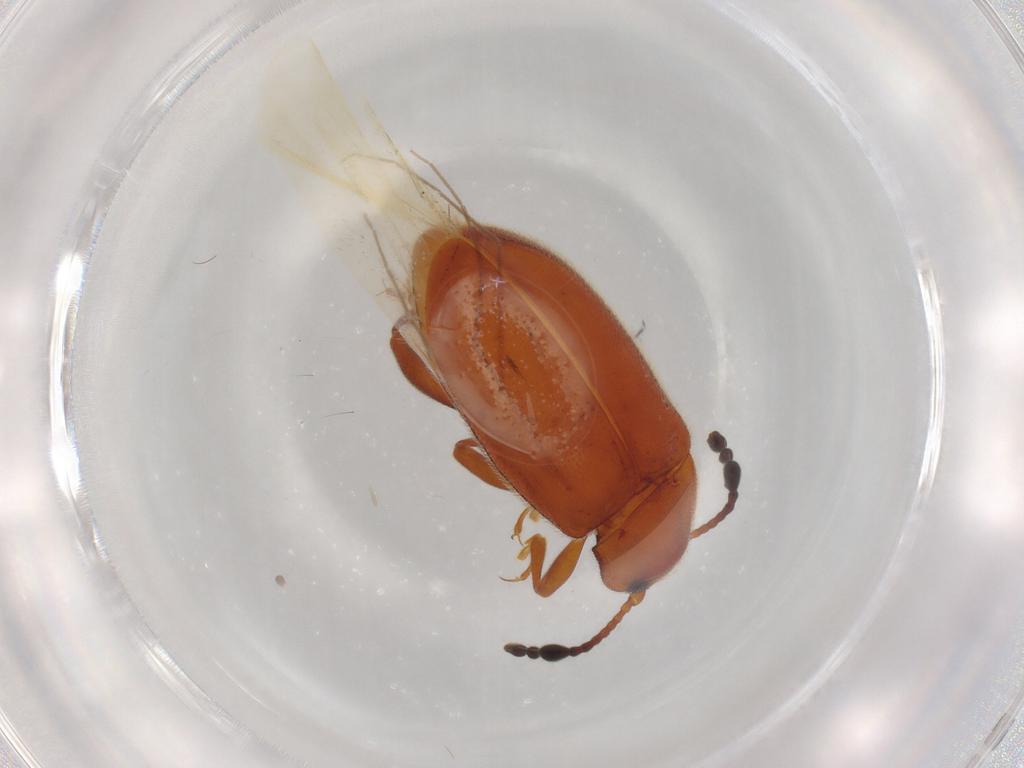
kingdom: Animalia
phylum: Arthropoda
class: Insecta
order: Coleoptera
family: Endomychidae
